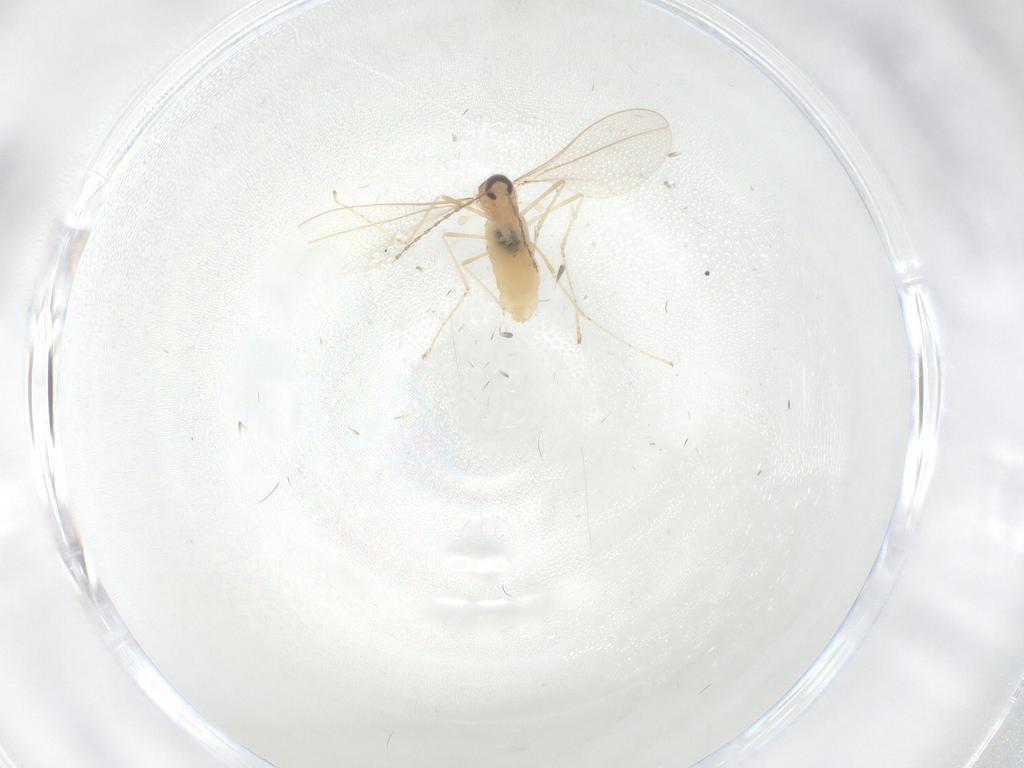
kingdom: Animalia
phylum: Arthropoda
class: Insecta
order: Diptera
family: Cecidomyiidae
